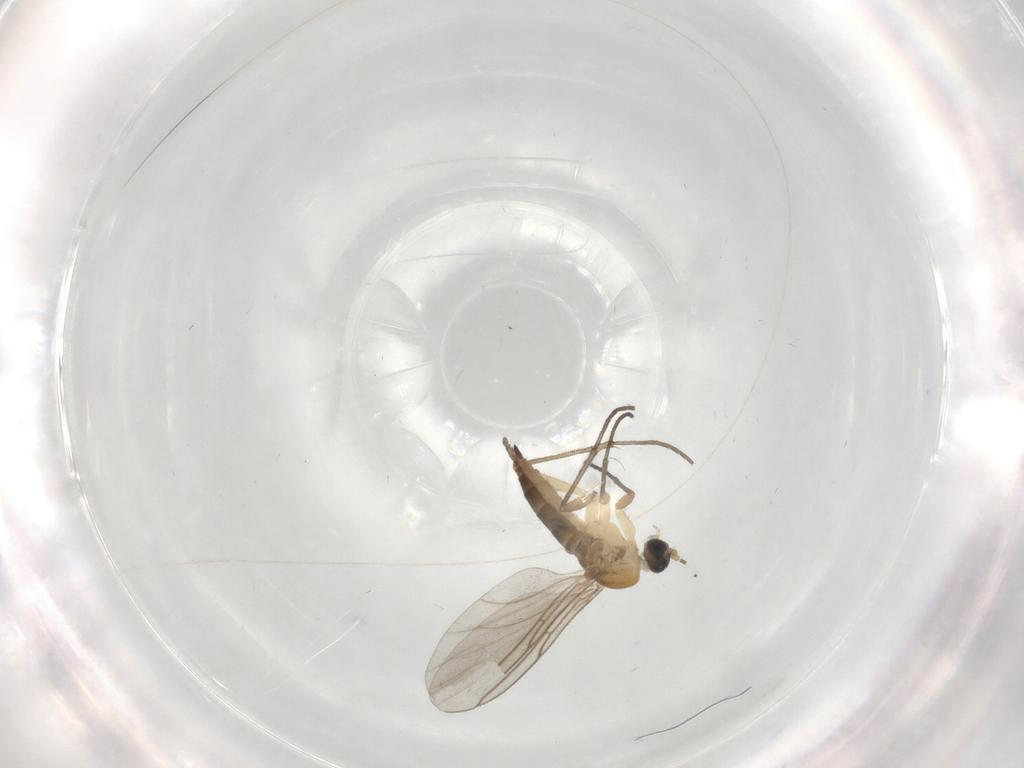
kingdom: Animalia
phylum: Arthropoda
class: Insecta
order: Diptera
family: Sciaridae
